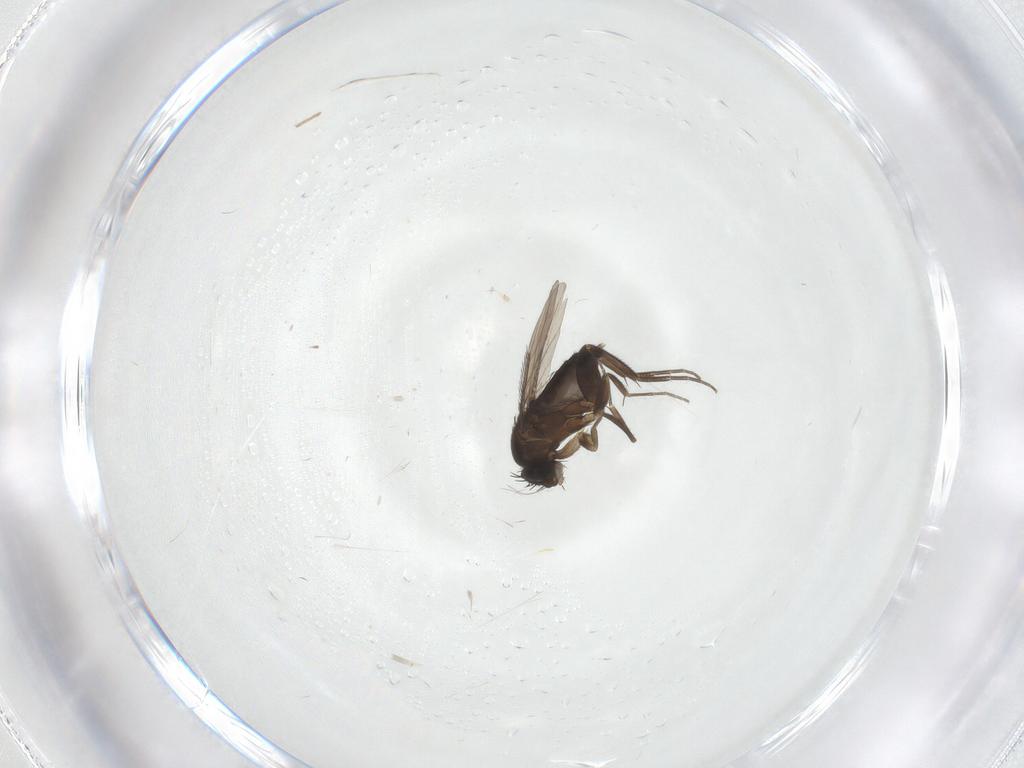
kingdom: Animalia
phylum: Arthropoda
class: Insecta
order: Diptera
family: Phoridae
